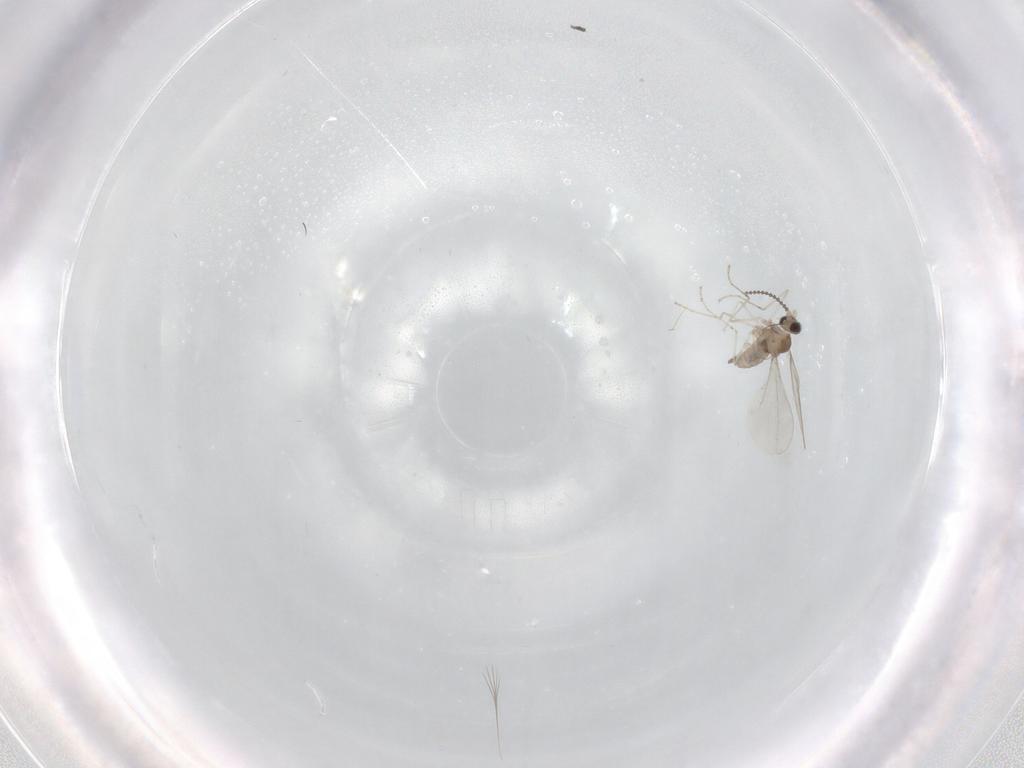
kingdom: Animalia
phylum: Arthropoda
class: Insecta
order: Diptera
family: Cecidomyiidae
